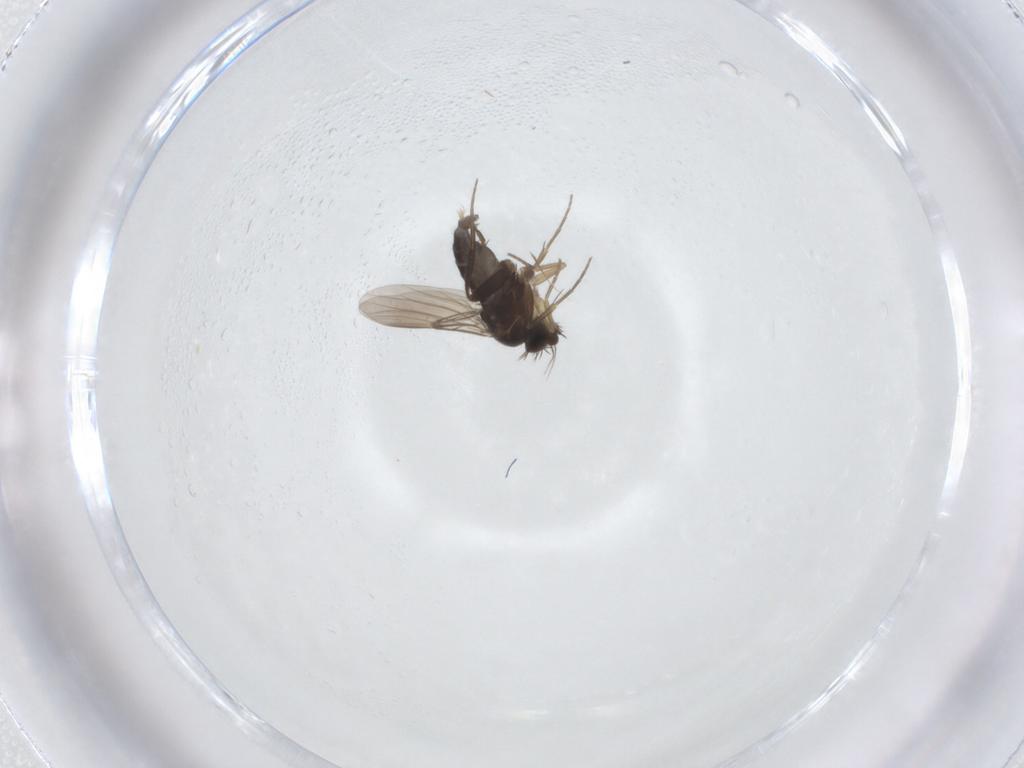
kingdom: Animalia
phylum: Arthropoda
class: Insecta
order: Diptera
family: Phoridae
